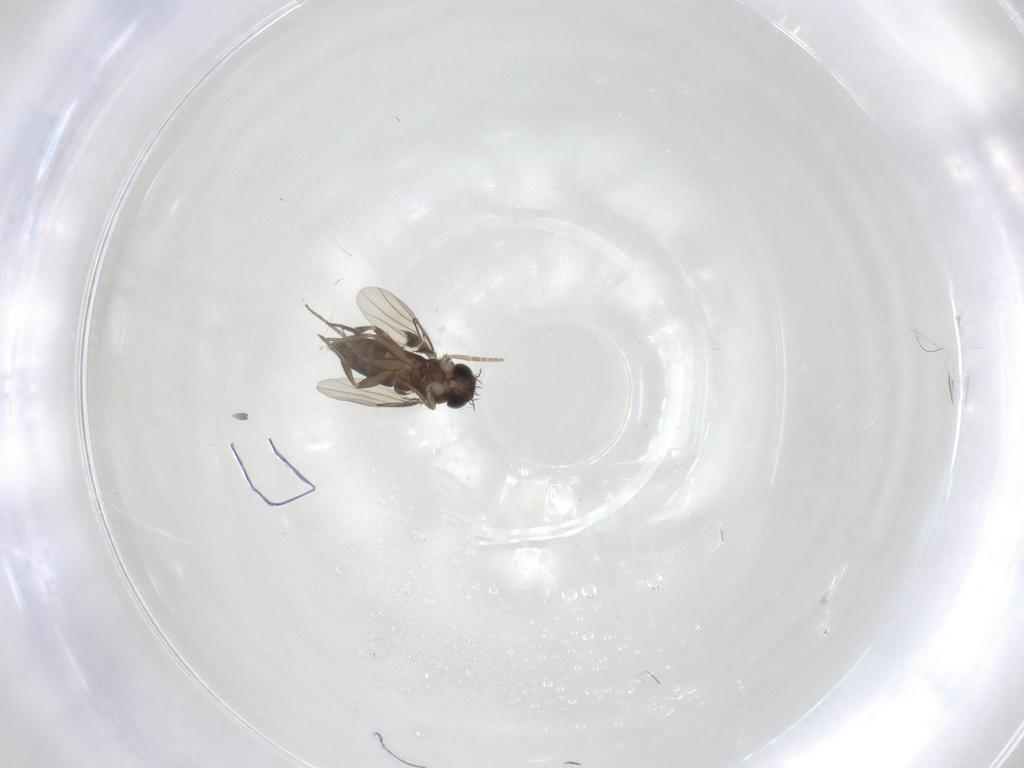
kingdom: Animalia
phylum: Arthropoda
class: Insecta
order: Diptera
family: Phoridae
